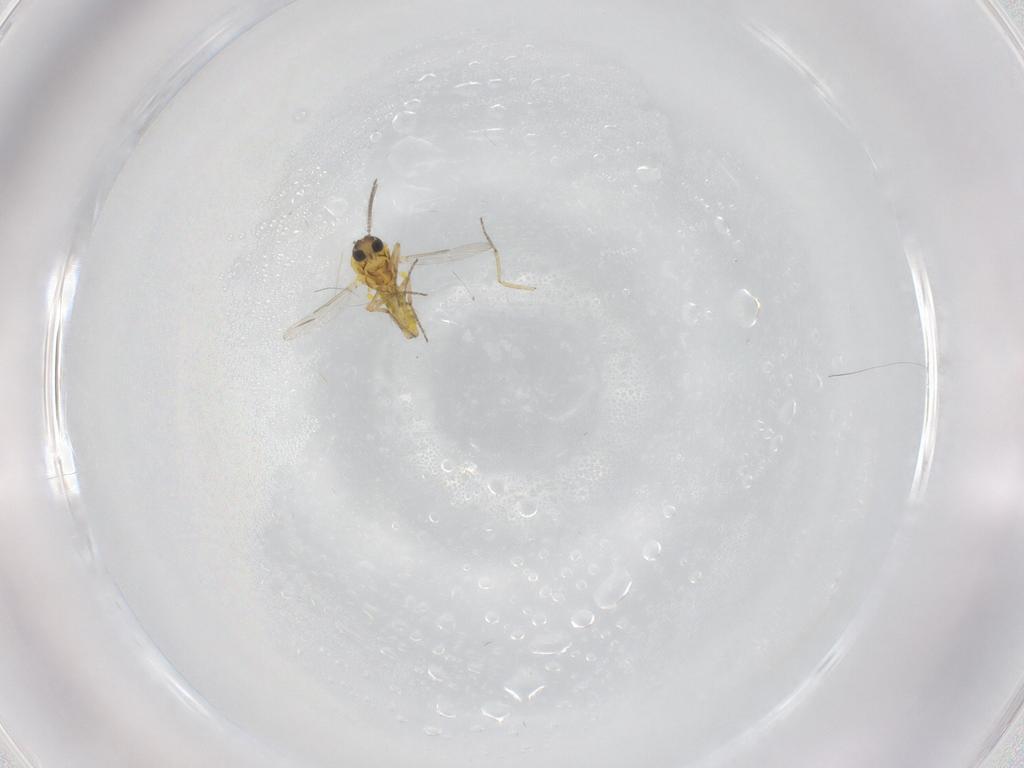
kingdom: Animalia
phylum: Arthropoda
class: Insecta
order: Diptera
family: Ceratopogonidae
